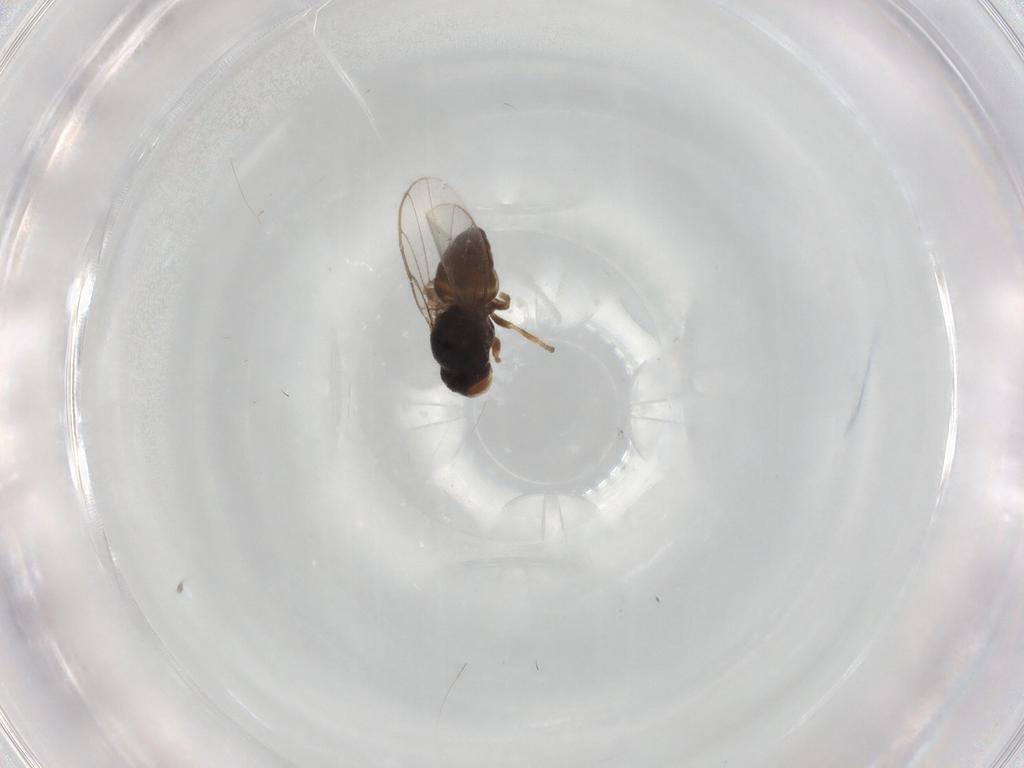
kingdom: Animalia
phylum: Arthropoda
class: Insecta
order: Diptera
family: Chloropidae
